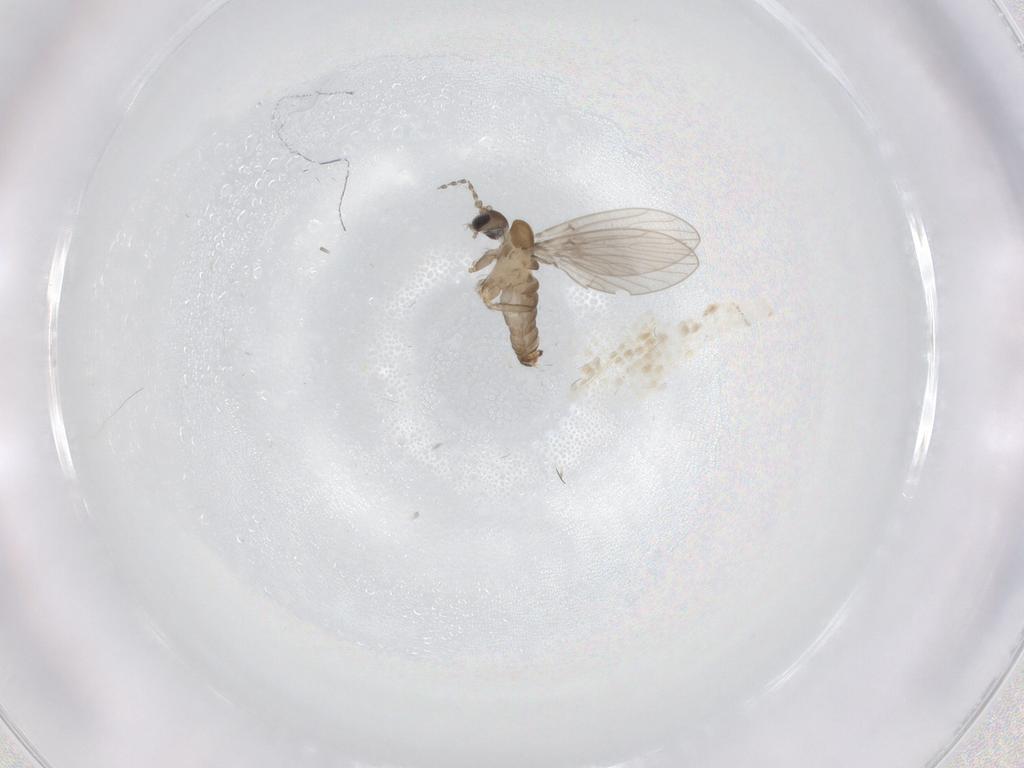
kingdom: Animalia
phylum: Arthropoda
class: Insecta
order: Diptera
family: Psychodidae
